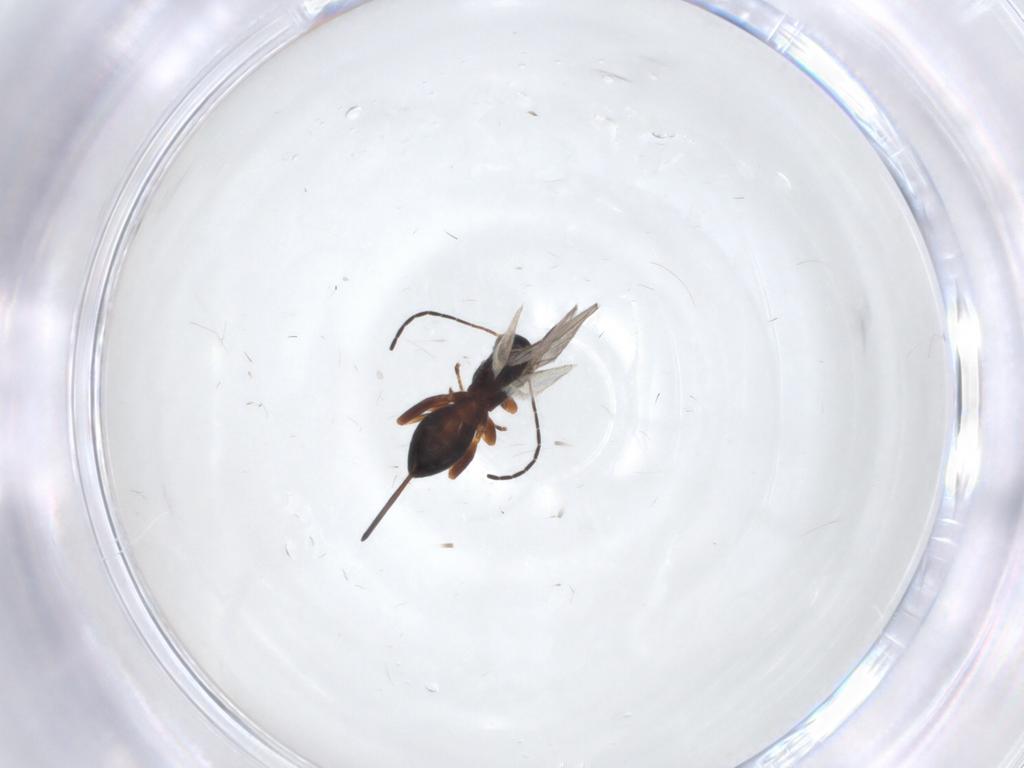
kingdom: Animalia
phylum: Arthropoda
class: Insecta
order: Hymenoptera
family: Braconidae
